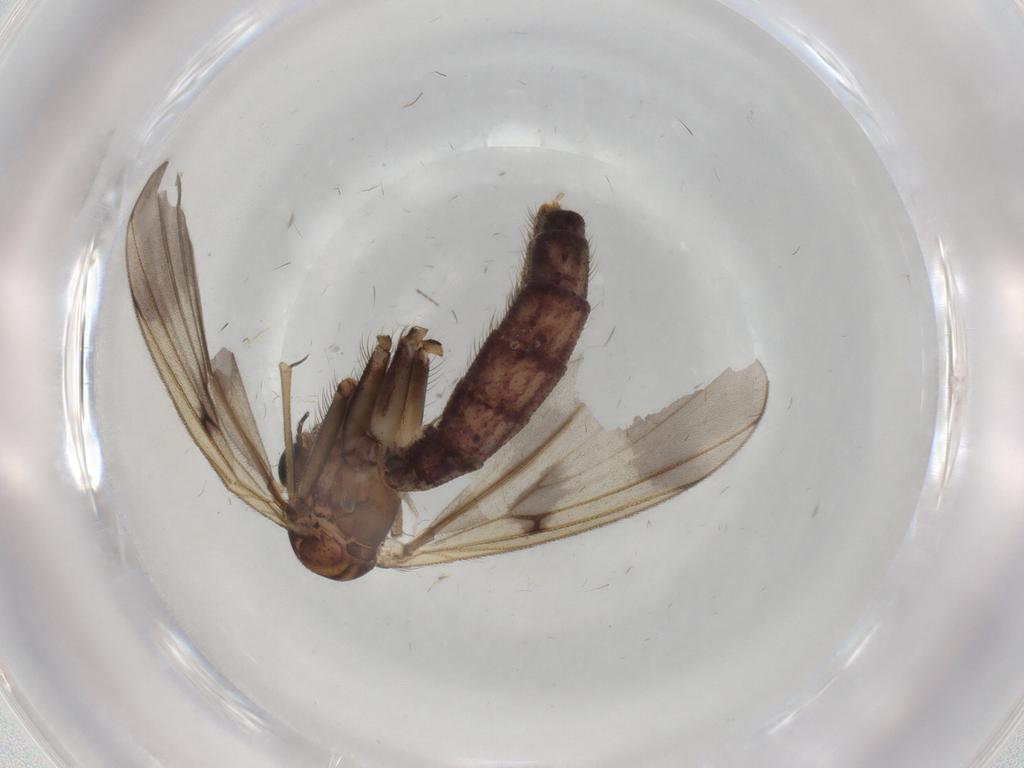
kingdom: Animalia
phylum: Arthropoda
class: Insecta
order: Diptera
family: Mycetophilidae
